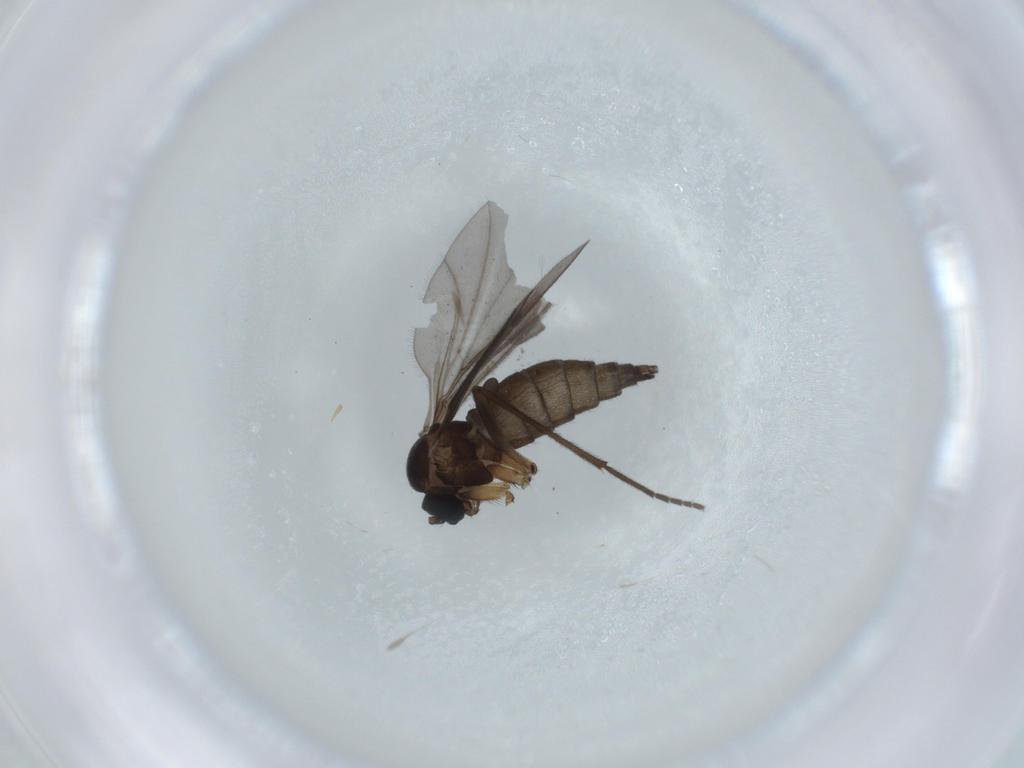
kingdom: Animalia
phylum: Arthropoda
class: Insecta
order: Diptera
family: Sciaridae
